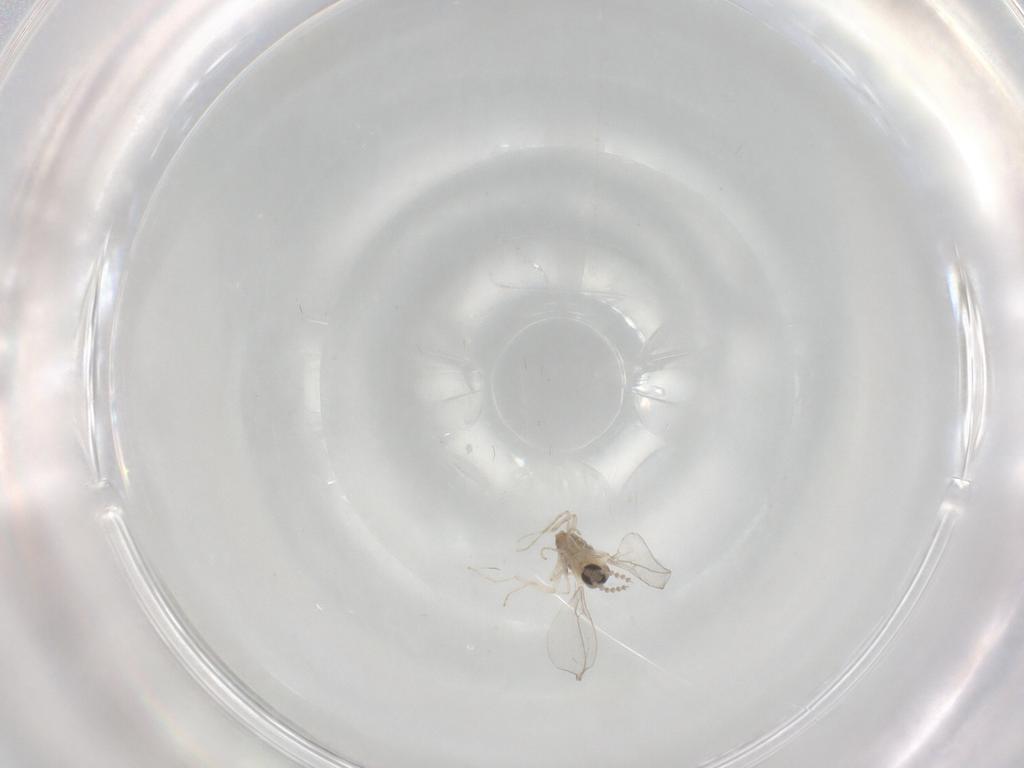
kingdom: Animalia
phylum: Arthropoda
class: Insecta
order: Diptera
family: Cecidomyiidae
